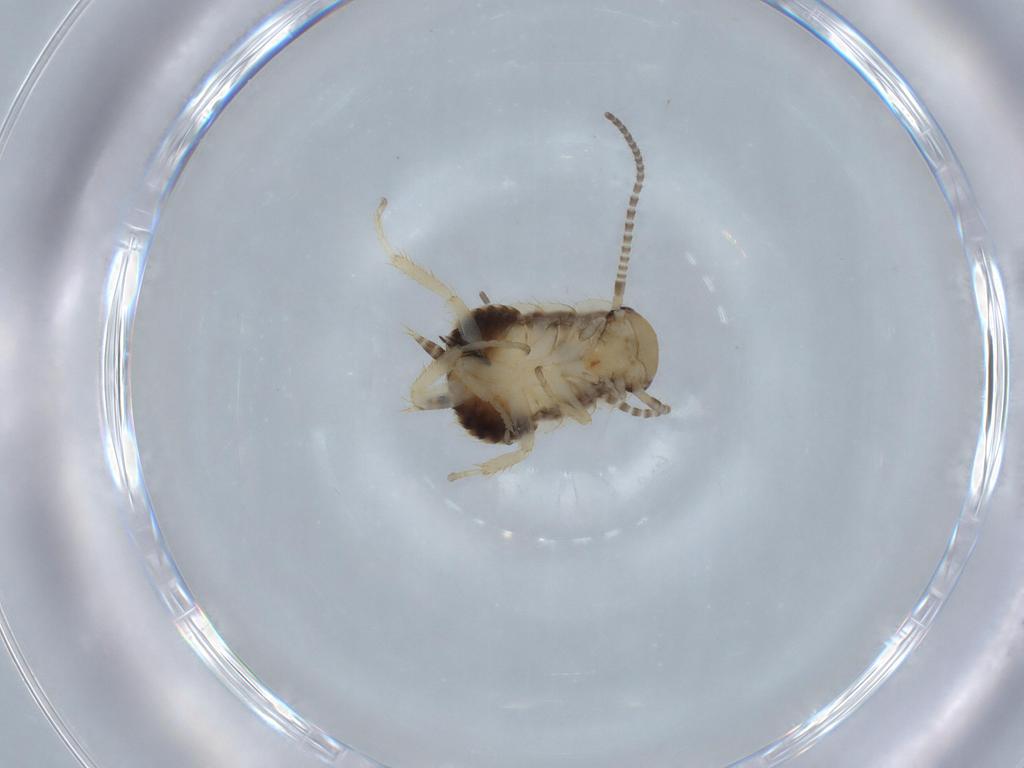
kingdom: Animalia
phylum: Arthropoda
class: Insecta
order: Blattodea
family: Ectobiidae
